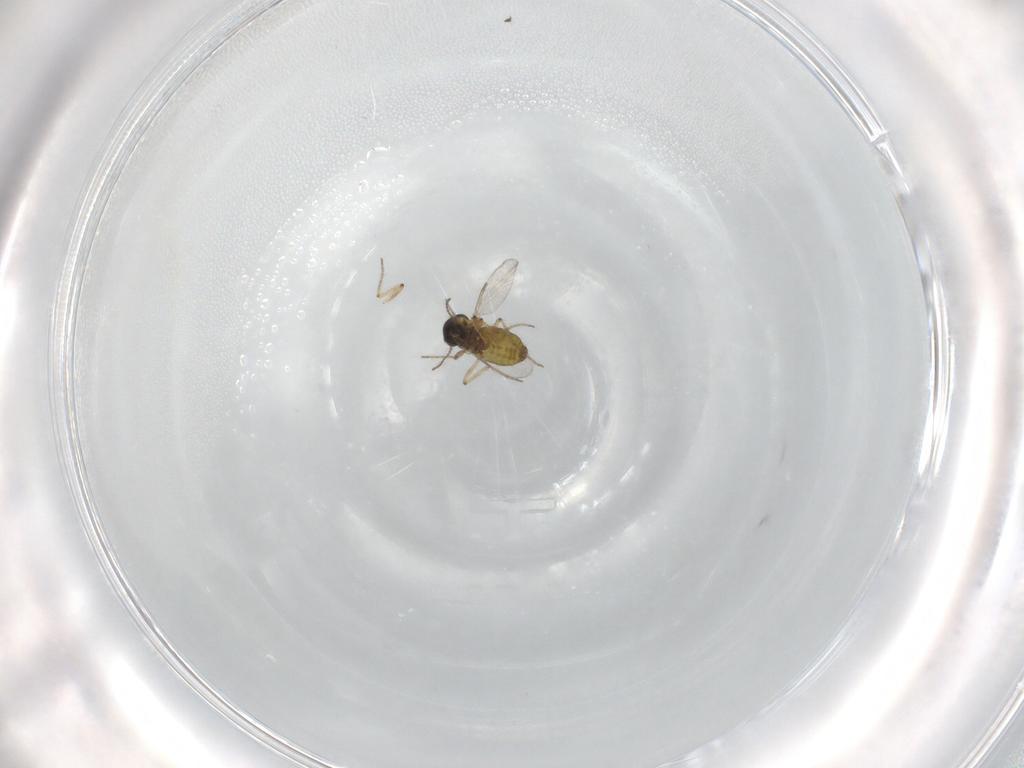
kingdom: Animalia
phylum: Arthropoda
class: Insecta
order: Diptera
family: Ceratopogonidae
